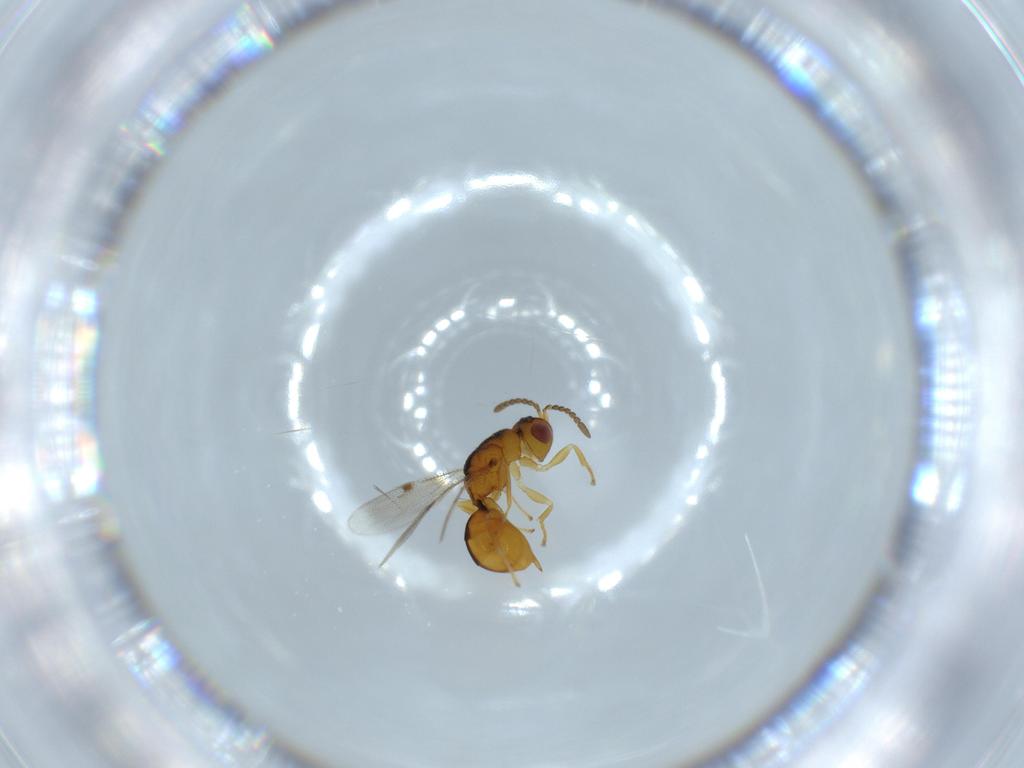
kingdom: Animalia
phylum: Arthropoda
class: Insecta
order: Hymenoptera
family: Eurytomidae
